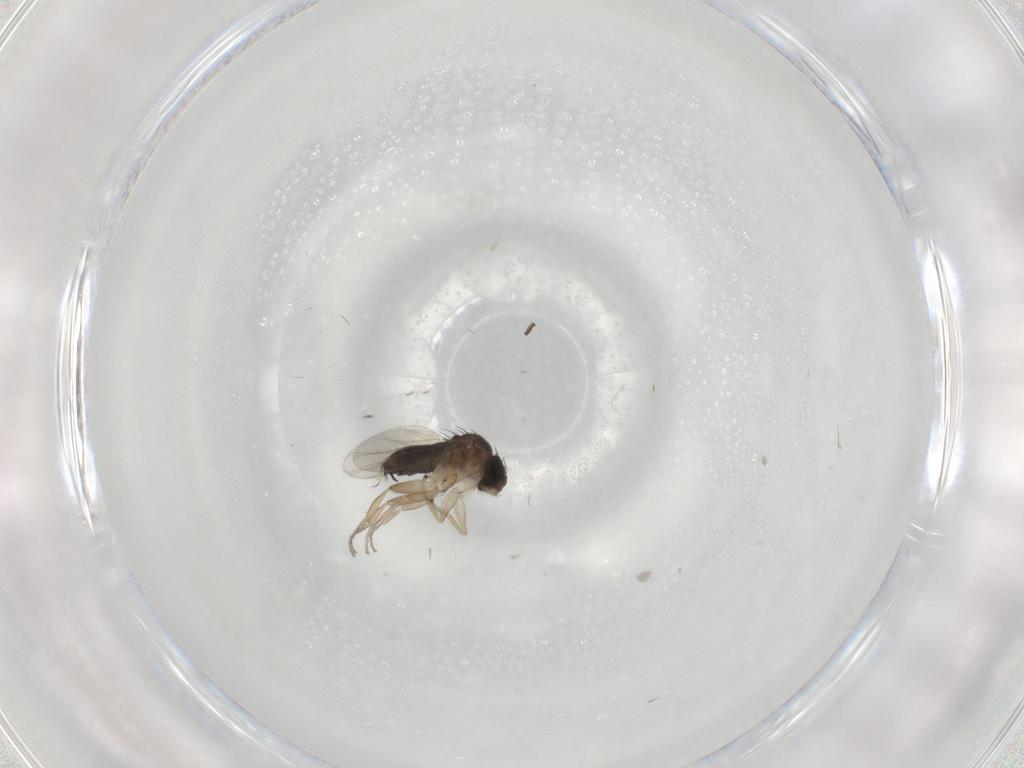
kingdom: Animalia
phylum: Arthropoda
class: Insecta
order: Diptera
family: Phoridae
